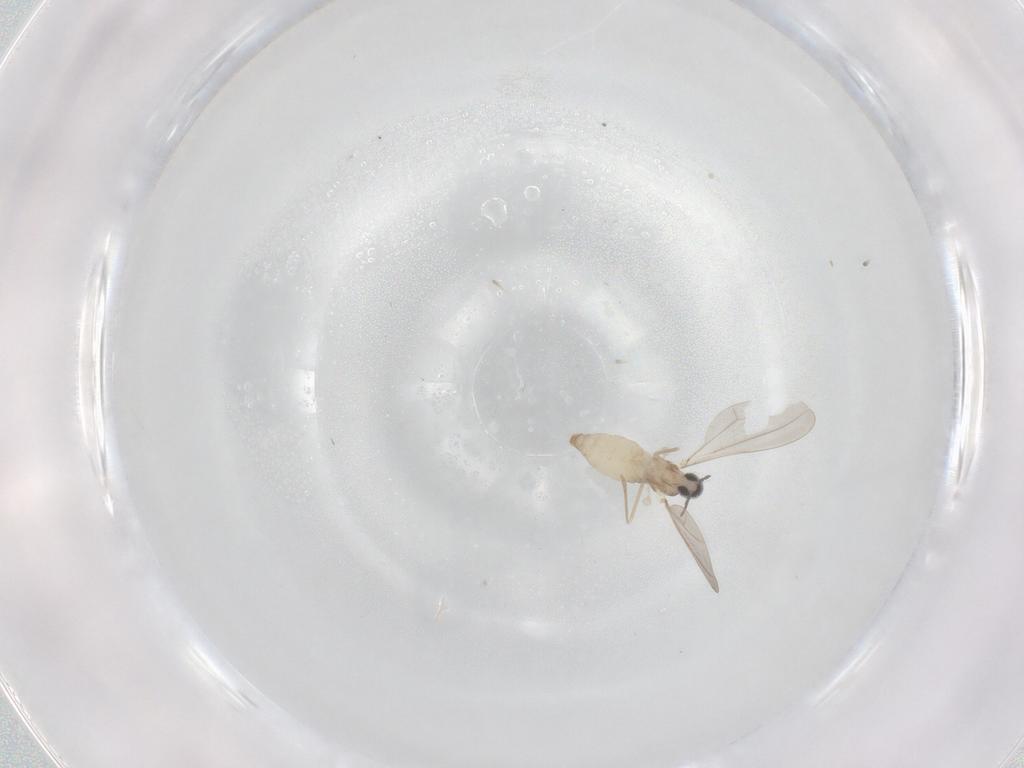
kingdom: Animalia
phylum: Arthropoda
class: Insecta
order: Diptera
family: Cecidomyiidae
